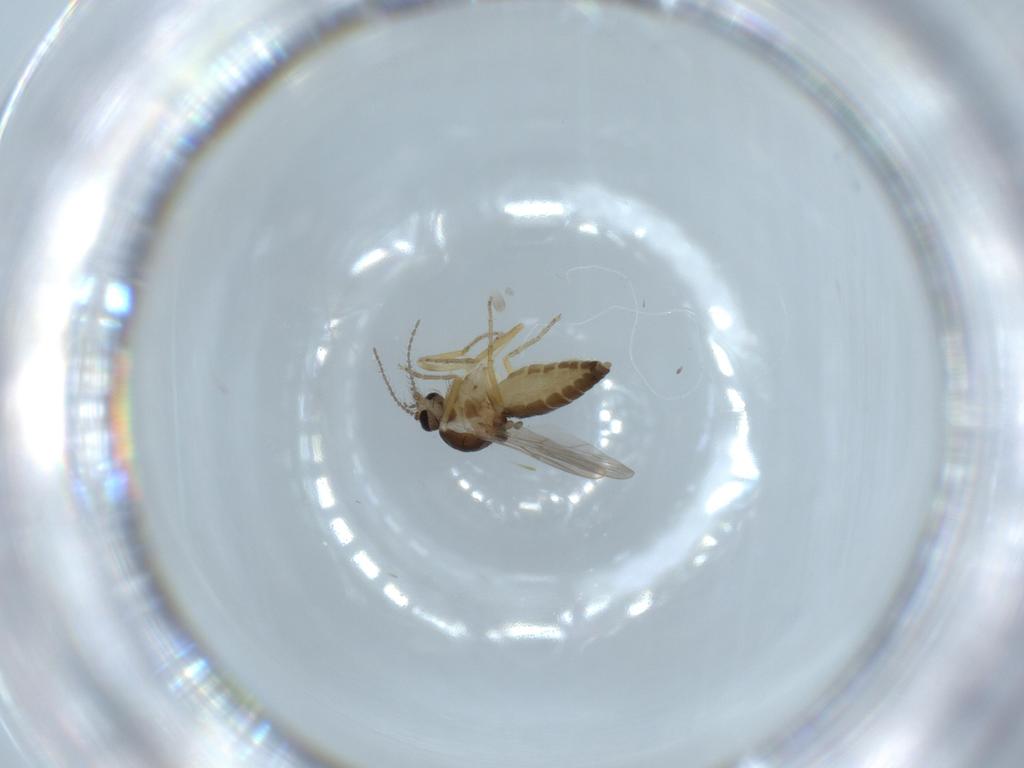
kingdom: Animalia
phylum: Arthropoda
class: Insecta
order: Diptera
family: Ceratopogonidae
